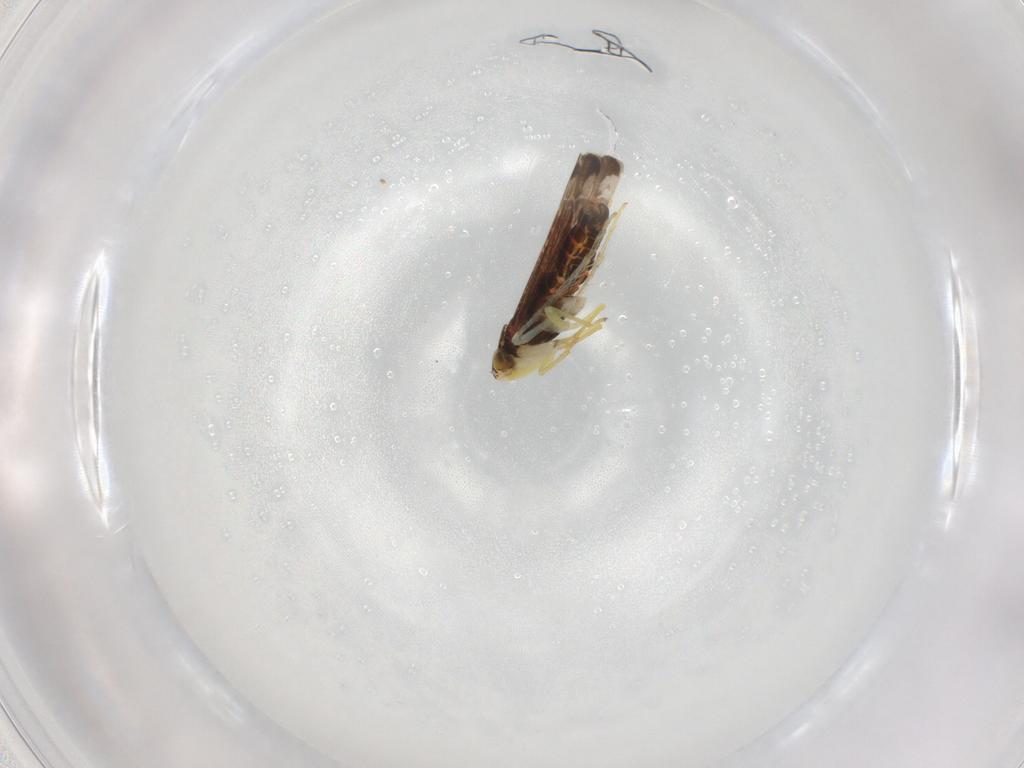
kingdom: Animalia
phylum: Arthropoda
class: Insecta
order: Hemiptera
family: Cicadellidae
